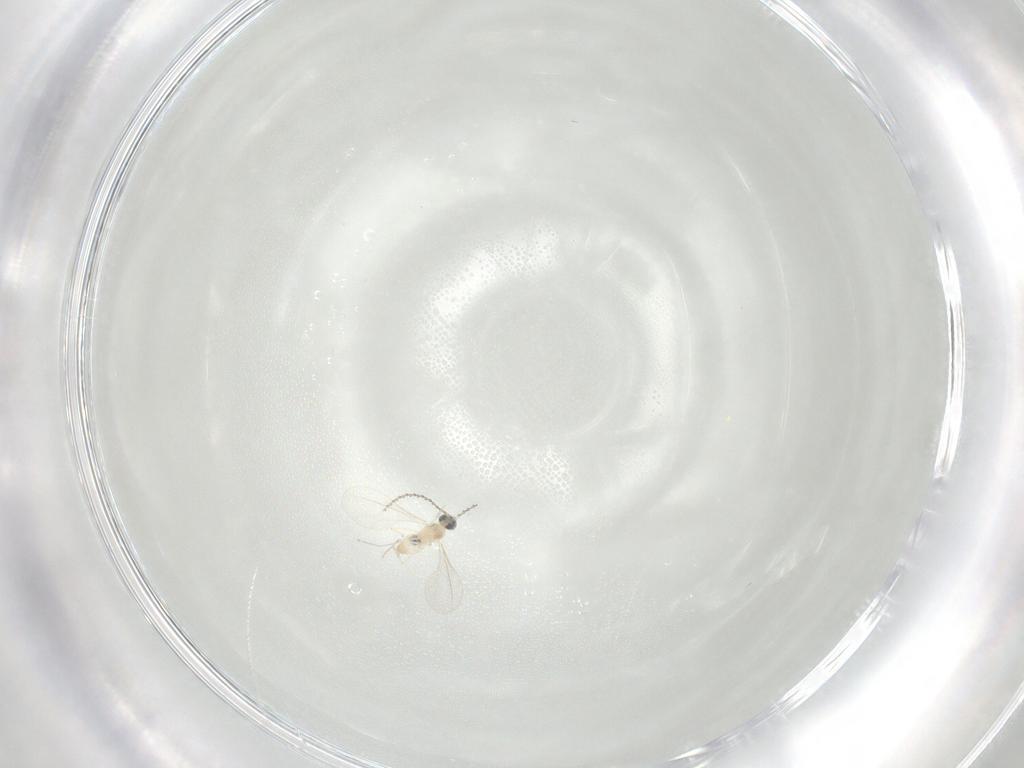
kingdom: Animalia
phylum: Arthropoda
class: Insecta
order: Diptera
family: Cecidomyiidae
